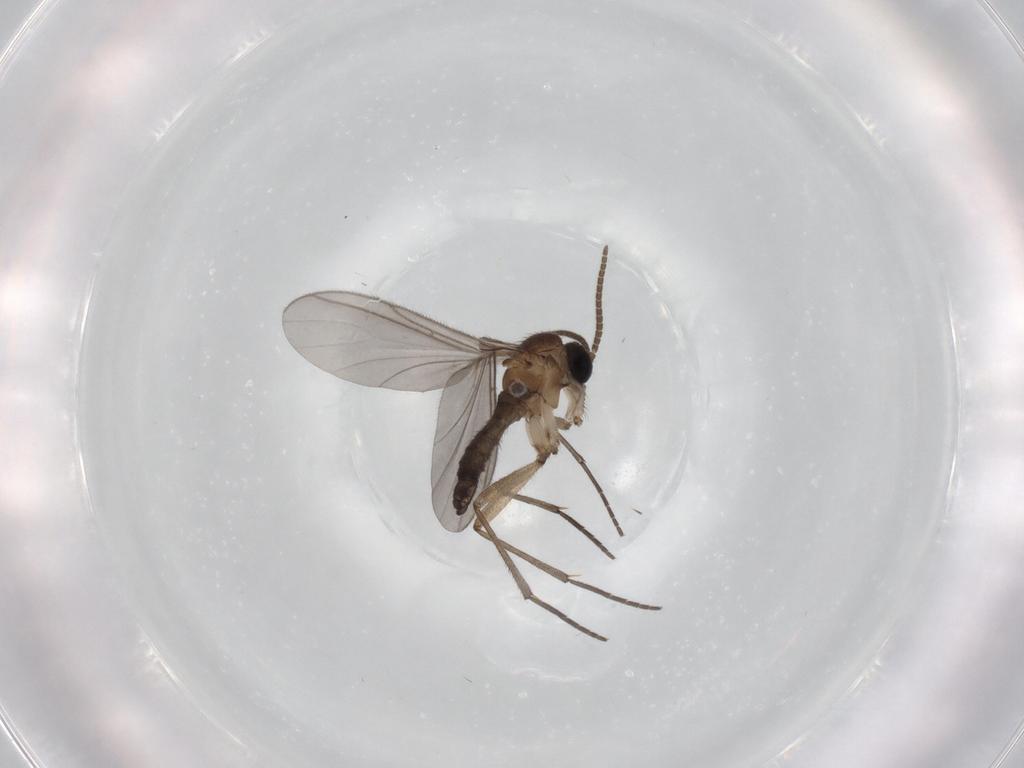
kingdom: Animalia
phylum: Arthropoda
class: Insecta
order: Diptera
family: Sciaridae
